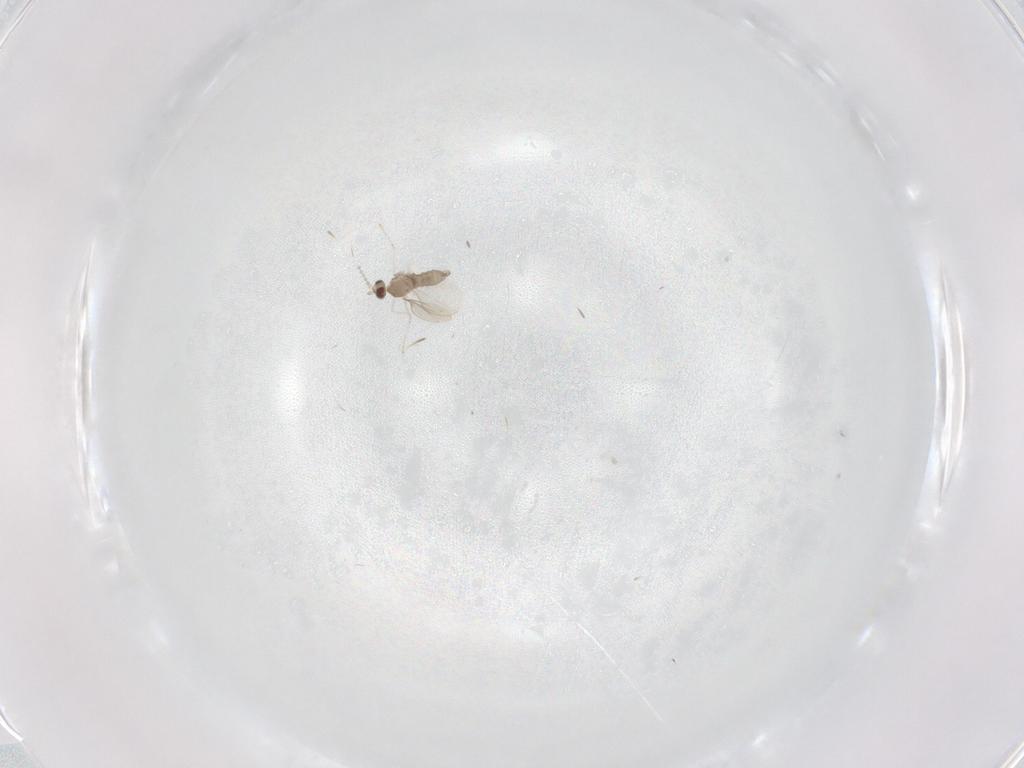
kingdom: Animalia
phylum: Arthropoda
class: Insecta
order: Diptera
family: Cecidomyiidae
